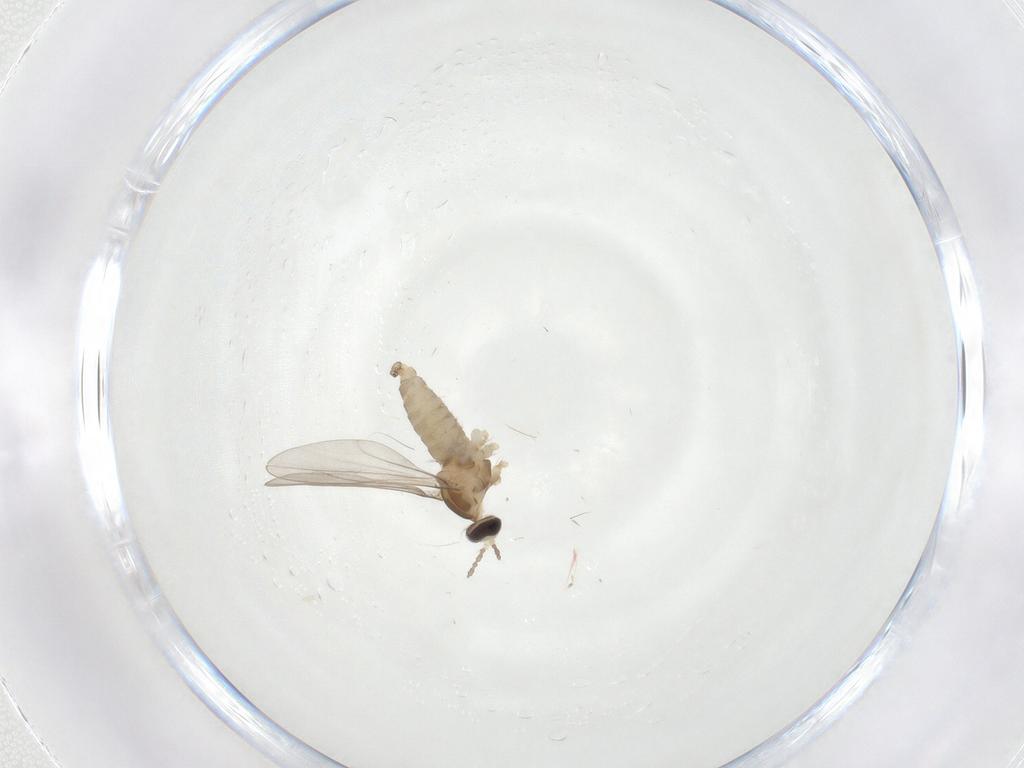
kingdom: Animalia
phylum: Arthropoda
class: Insecta
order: Diptera
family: Cecidomyiidae
